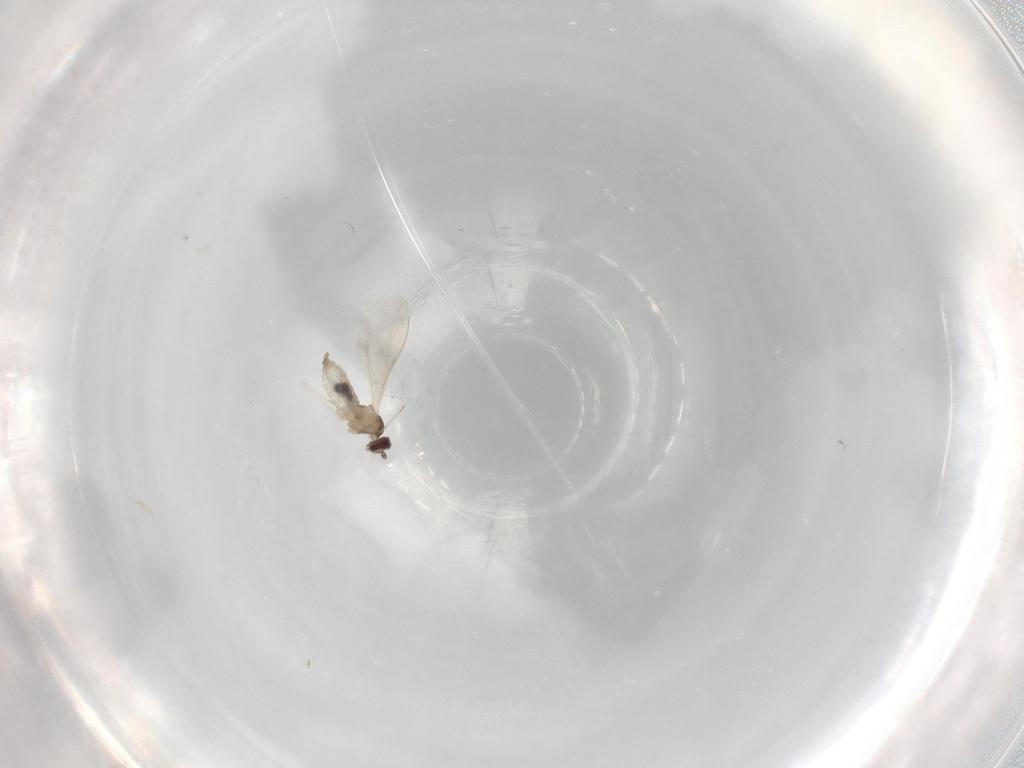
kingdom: Animalia
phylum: Arthropoda
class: Insecta
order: Diptera
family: Cecidomyiidae
